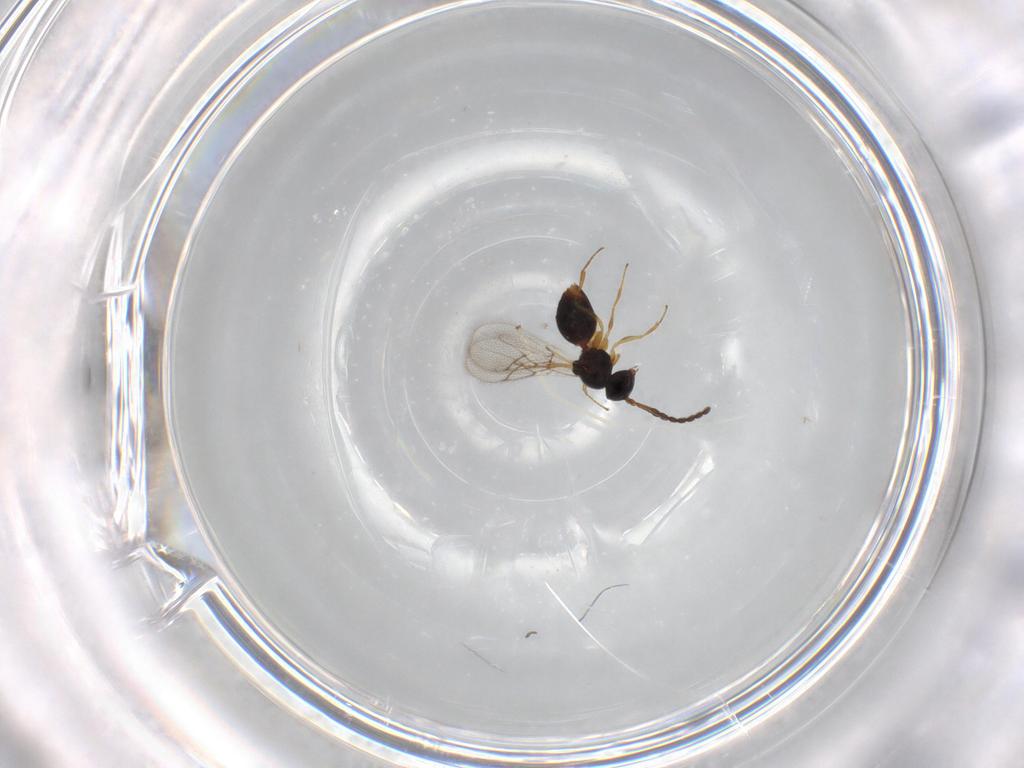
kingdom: Animalia
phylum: Arthropoda
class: Insecta
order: Hymenoptera
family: Figitidae
